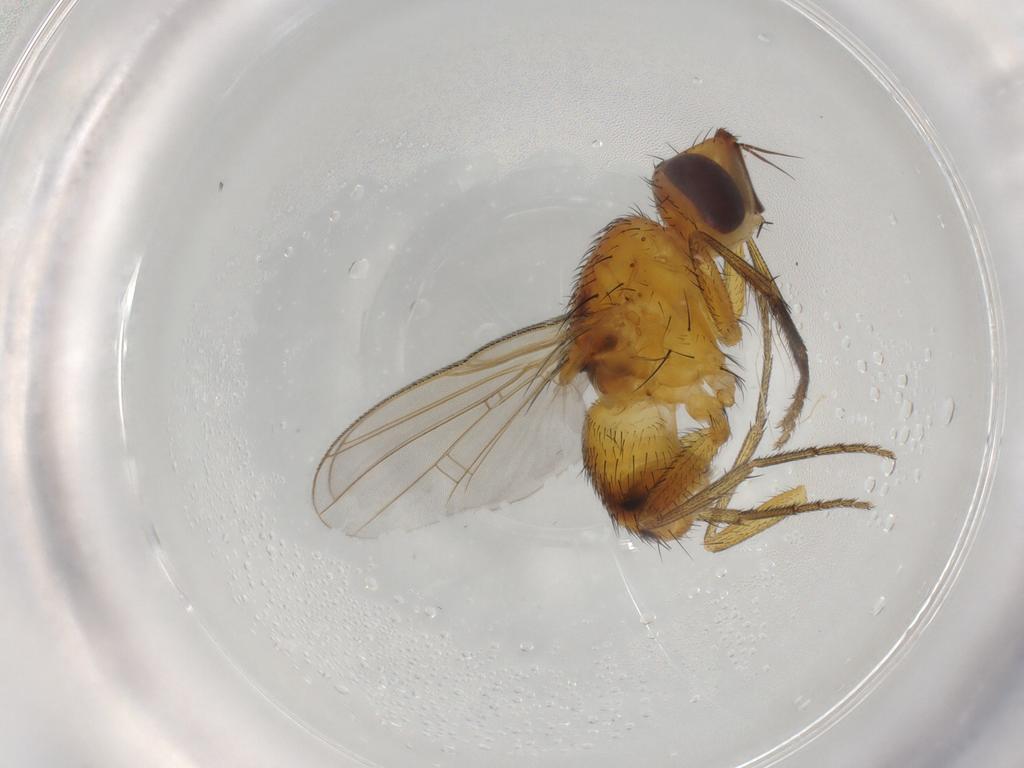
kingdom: Animalia
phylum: Arthropoda
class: Insecta
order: Diptera
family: Muscidae
